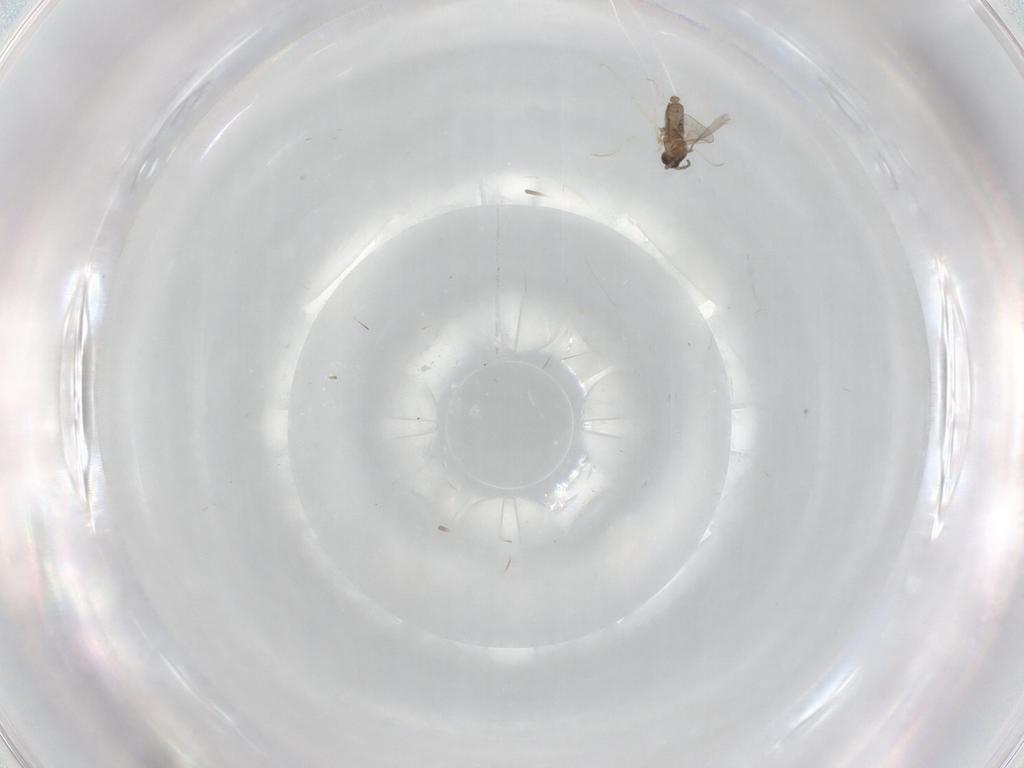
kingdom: Animalia
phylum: Arthropoda
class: Insecta
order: Diptera
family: Cecidomyiidae
